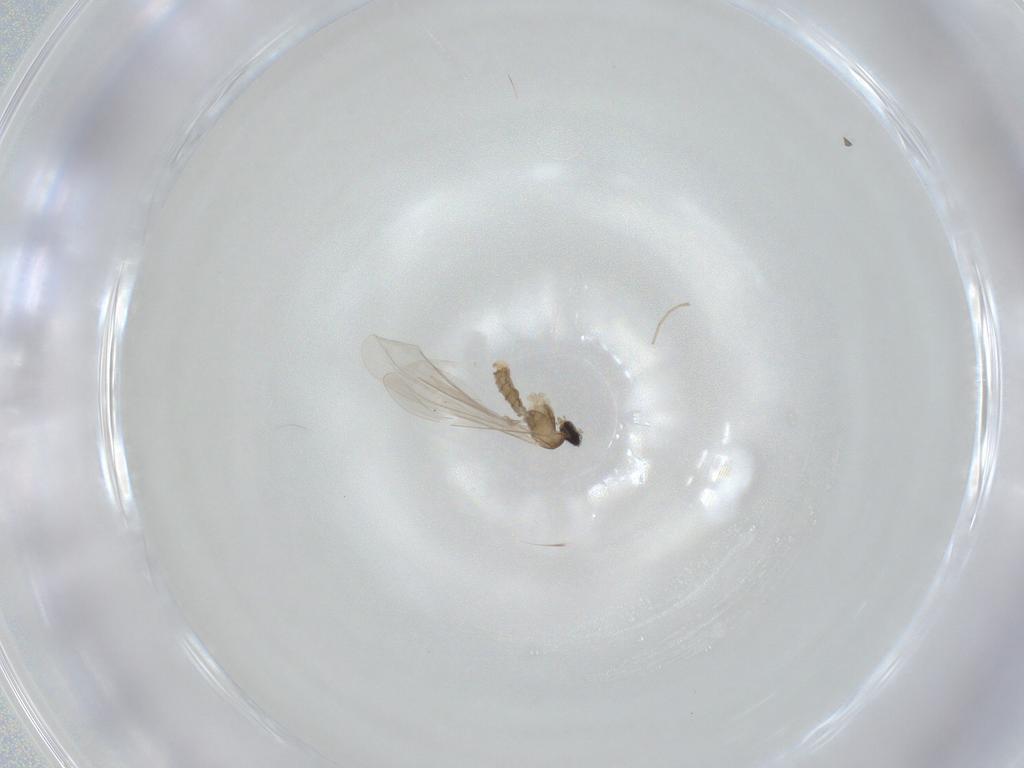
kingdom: Animalia
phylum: Arthropoda
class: Insecta
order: Diptera
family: Cecidomyiidae
